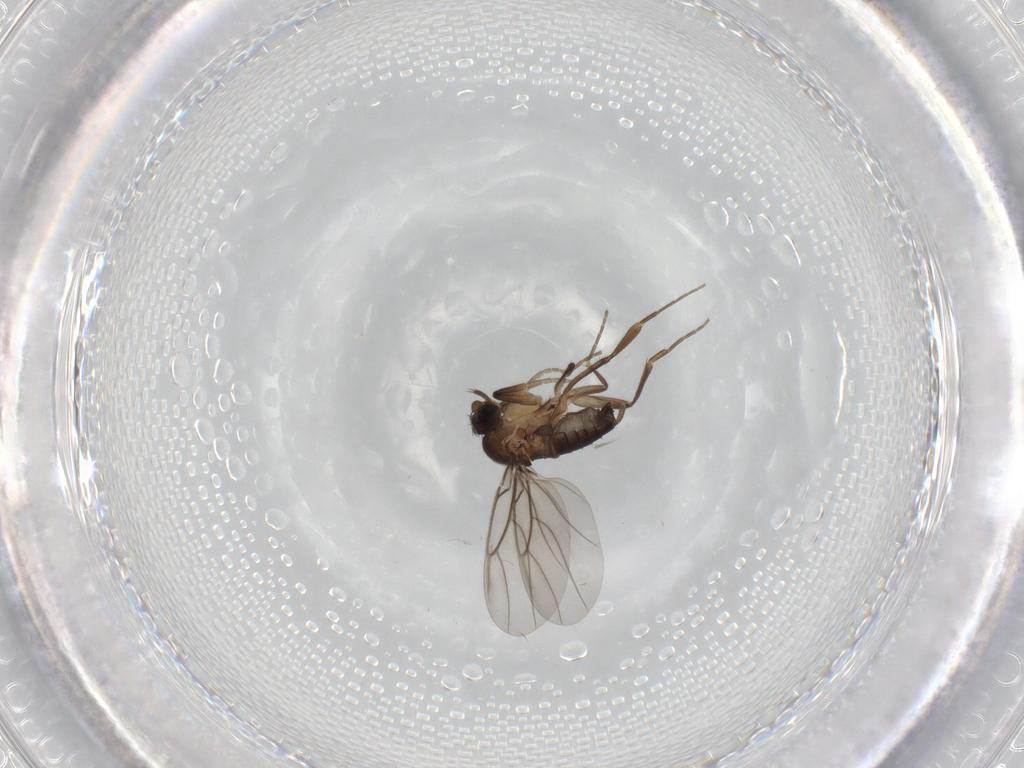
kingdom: Animalia
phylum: Arthropoda
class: Insecta
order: Diptera
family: Phoridae
